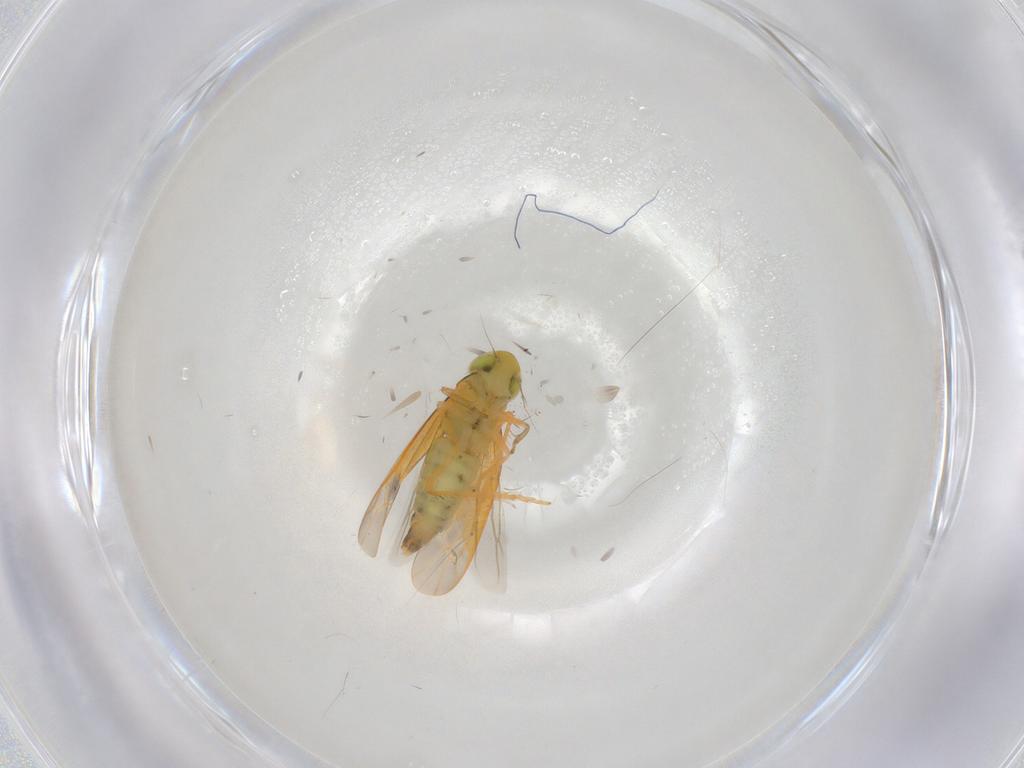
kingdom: Animalia
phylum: Arthropoda
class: Insecta
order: Hemiptera
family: Cicadellidae
